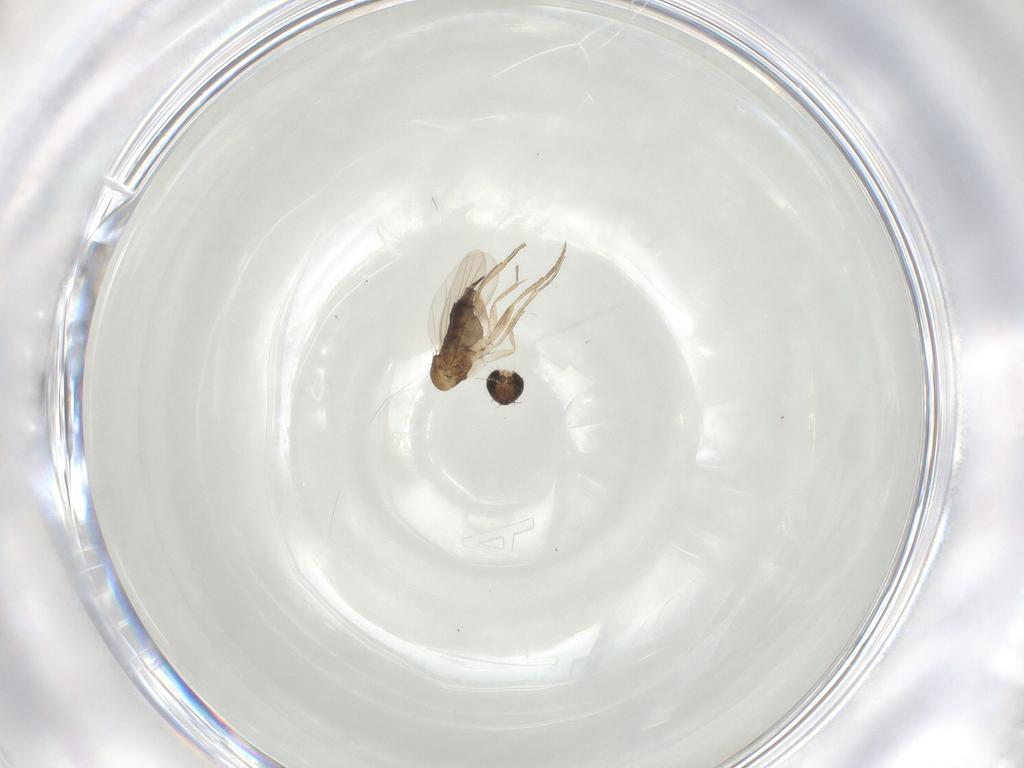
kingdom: Animalia
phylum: Arthropoda
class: Insecta
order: Diptera
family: Phoridae
